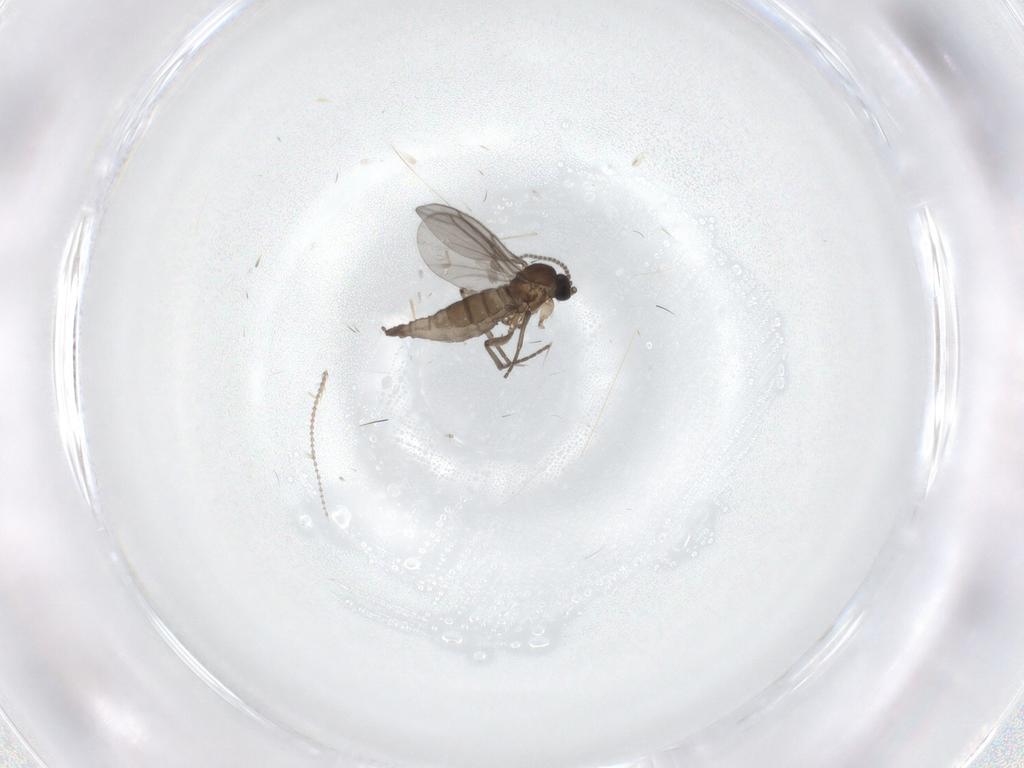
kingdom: Animalia
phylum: Arthropoda
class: Insecta
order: Diptera
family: Sciaridae
